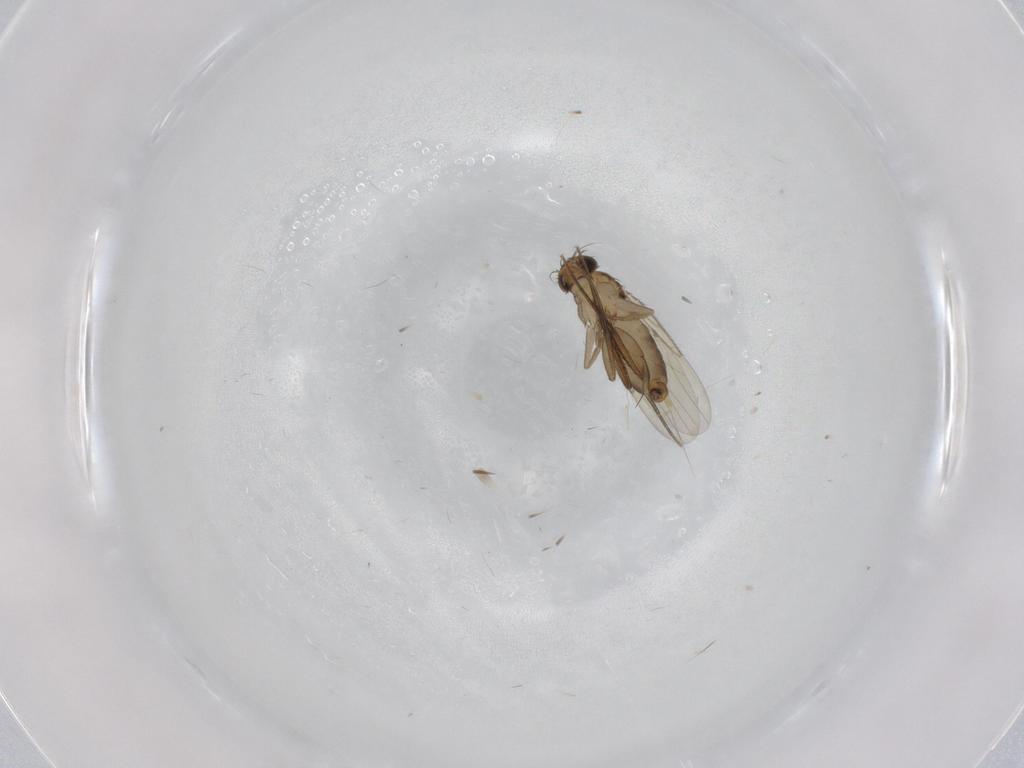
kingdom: Animalia
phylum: Arthropoda
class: Insecta
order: Diptera
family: Phoridae
